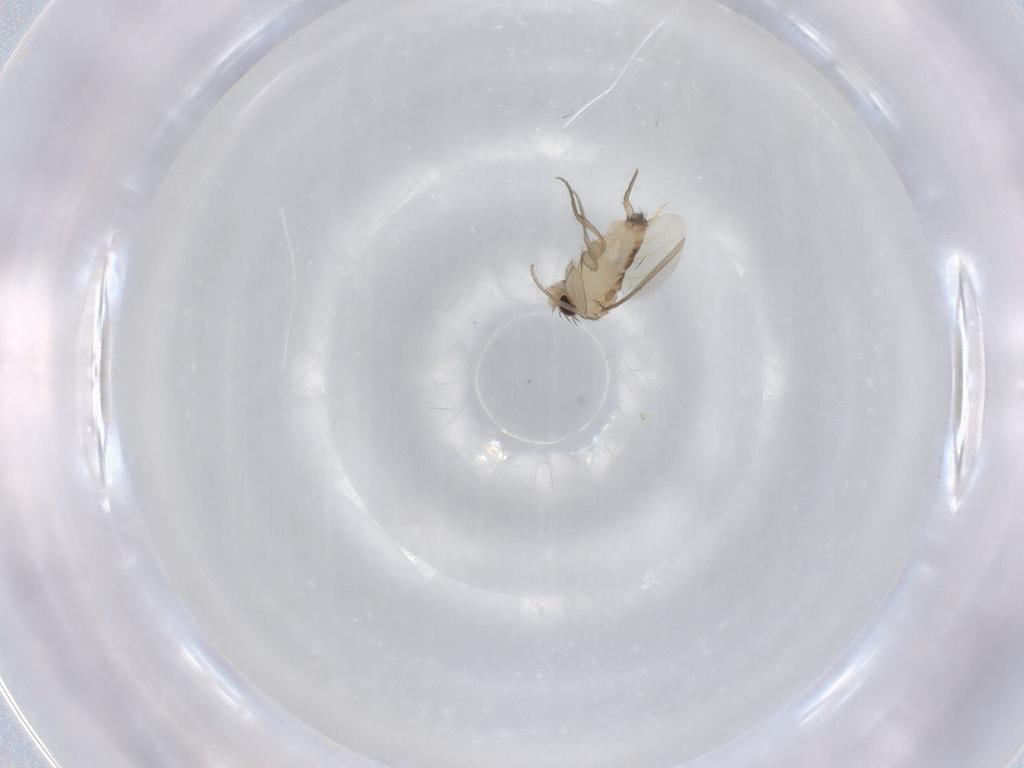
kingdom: Animalia
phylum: Arthropoda
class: Insecta
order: Diptera
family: Phoridae
